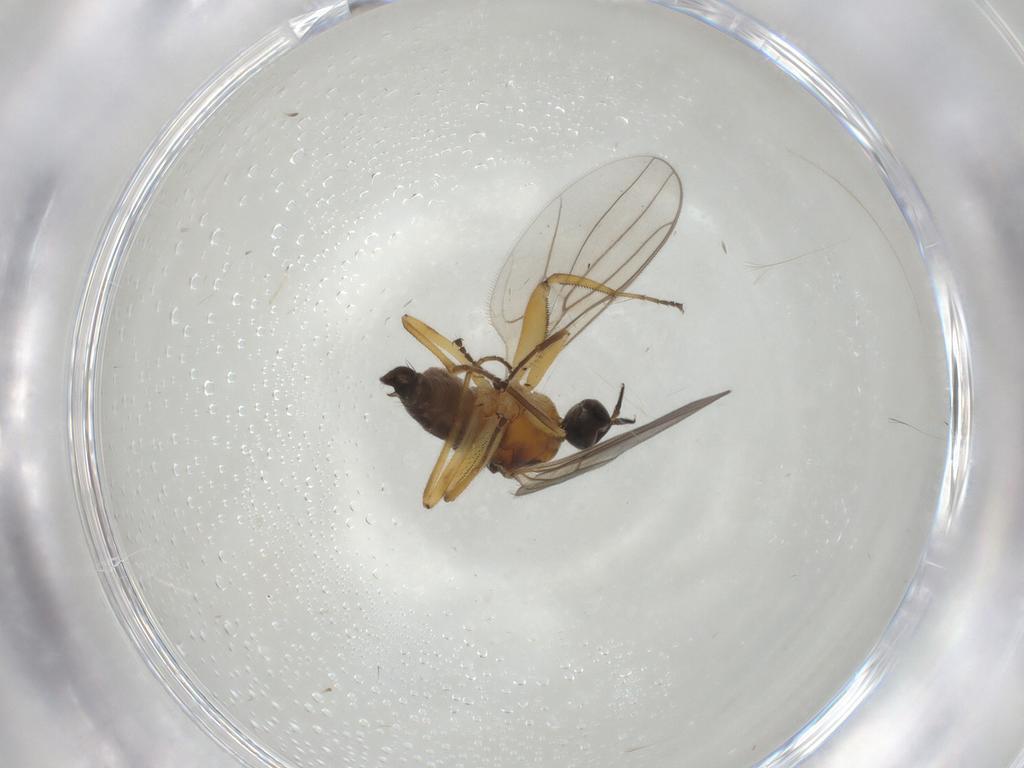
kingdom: Animalia
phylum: Arthropoda
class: Insecta
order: Diptera
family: Hybotidae
